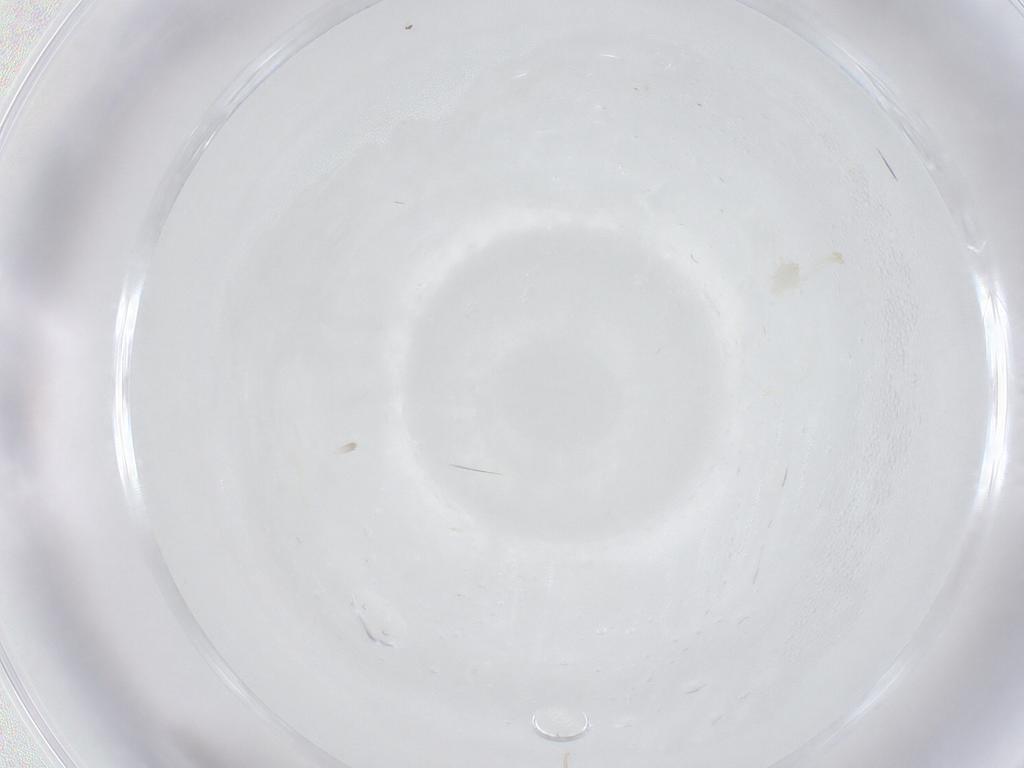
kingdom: Animalia
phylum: Arthropoda
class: Insecta
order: Diptera
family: Phoridae
